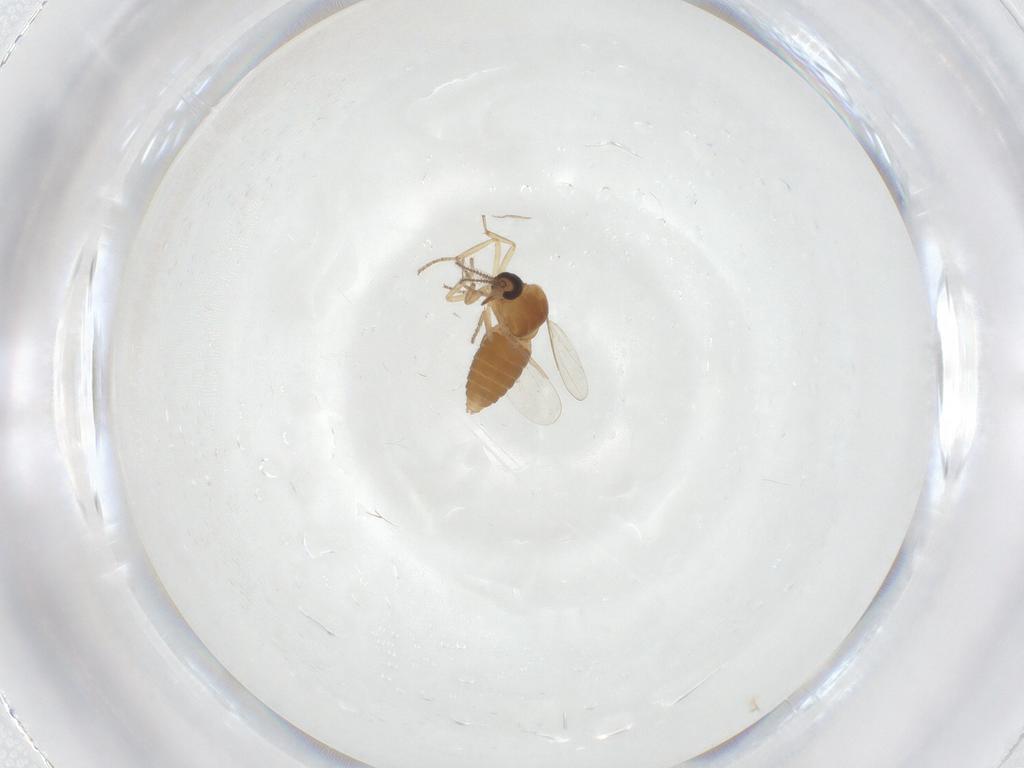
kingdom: Animalia
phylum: Arthropoda
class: Insecta
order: Diptera
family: Ceratopogonidae
